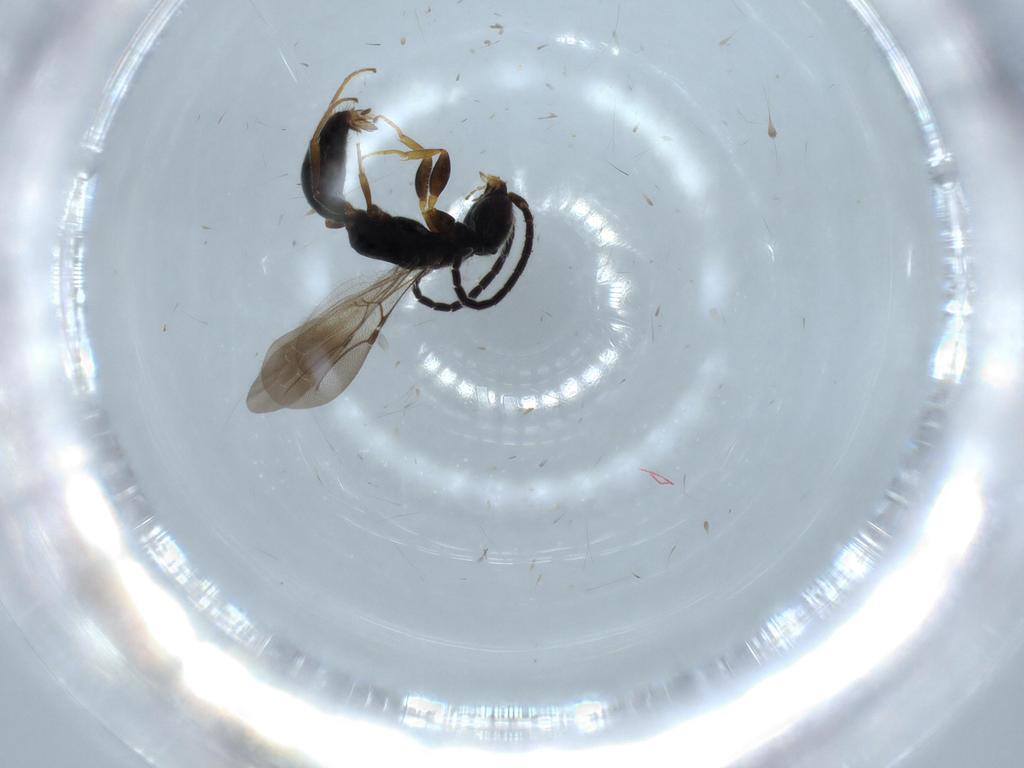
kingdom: Animalia
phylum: Arthropoda
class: Insecta
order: Hymenoptera
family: Bethylidae
